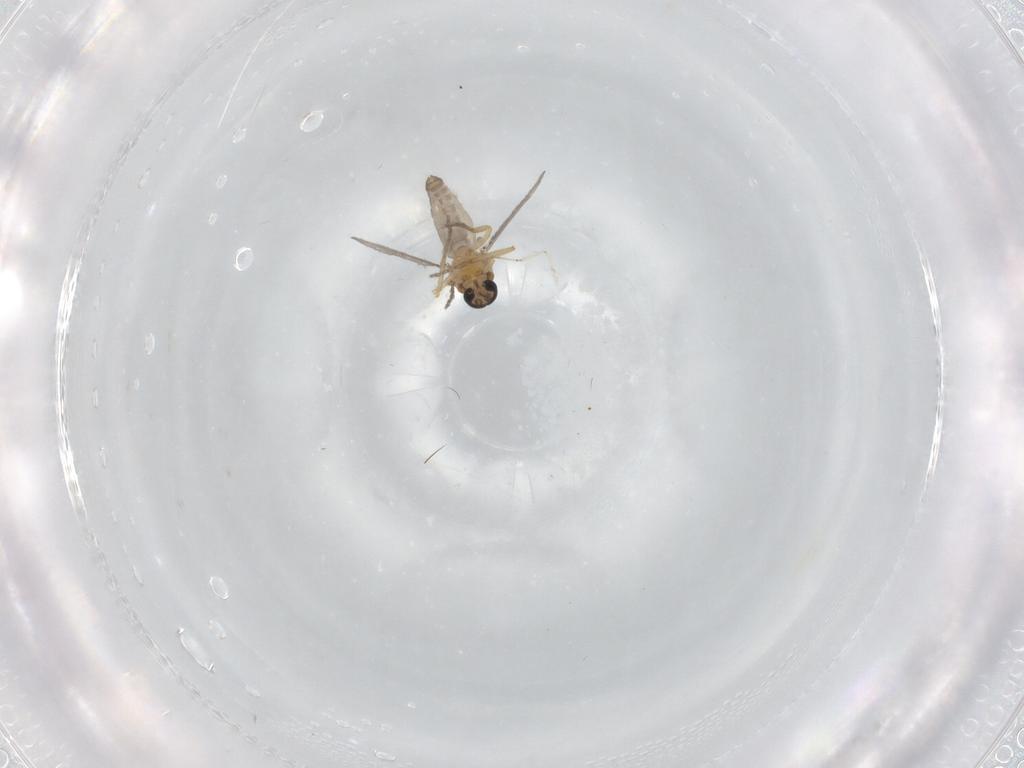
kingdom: Animalia
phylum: Arthropoda
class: Insecta
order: Diptera
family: Cecidomyiidae
